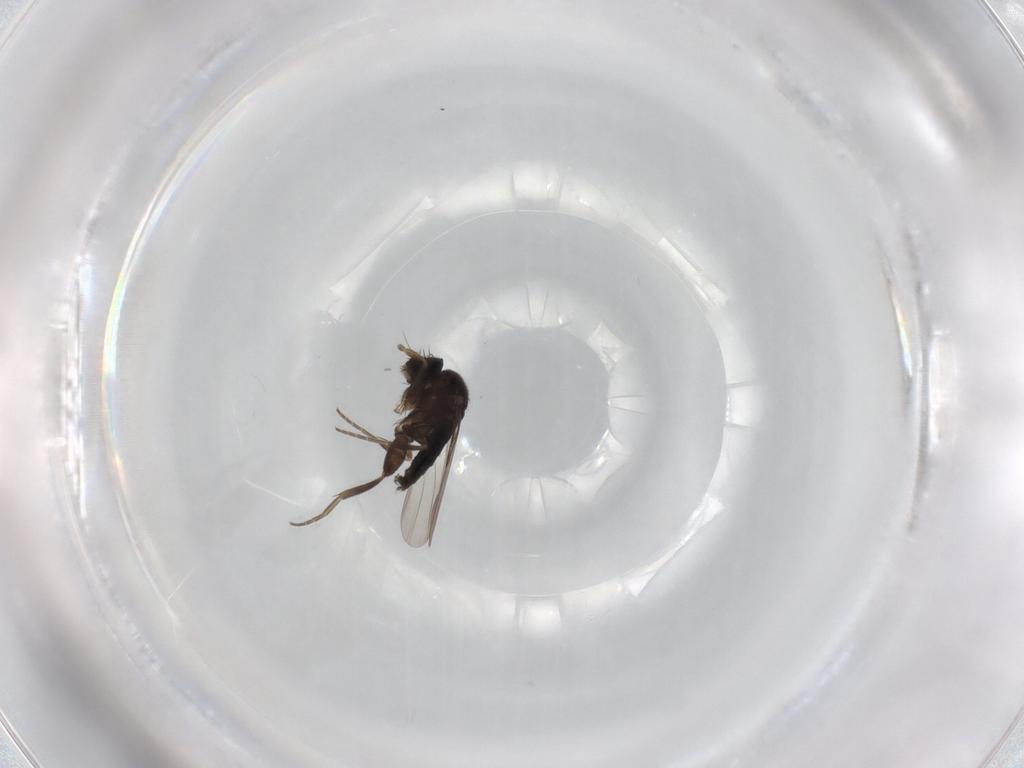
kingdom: Animalia
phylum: Arthropoda
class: Insecta
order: Diptera
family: Phoridae
